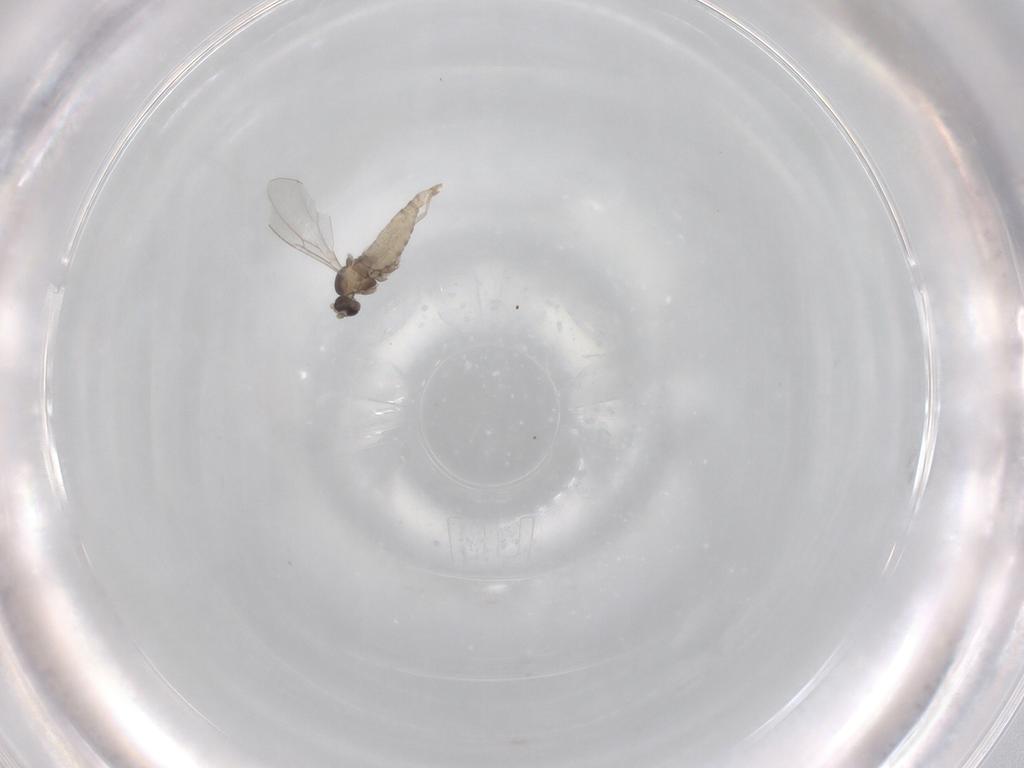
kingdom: Animalia
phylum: Arthropoda
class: Insecta
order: Diptera
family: Cecidomyiidae
